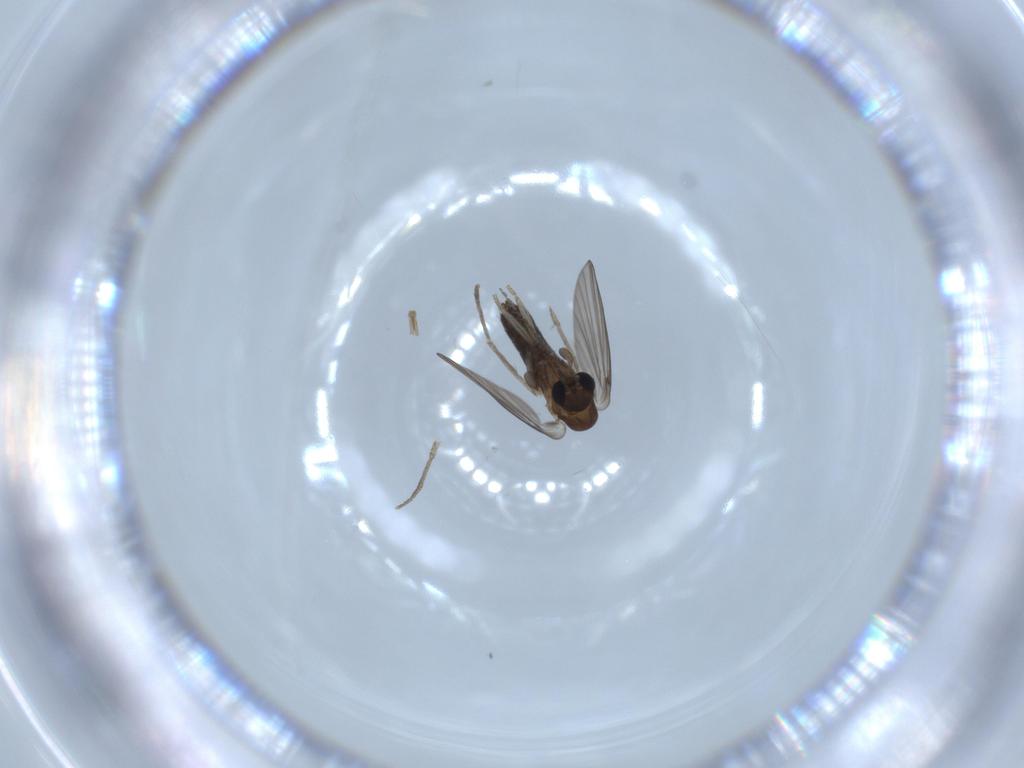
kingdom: Animalia
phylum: Arthropoda
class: Insecta
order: Diptera
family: Psychodidae
